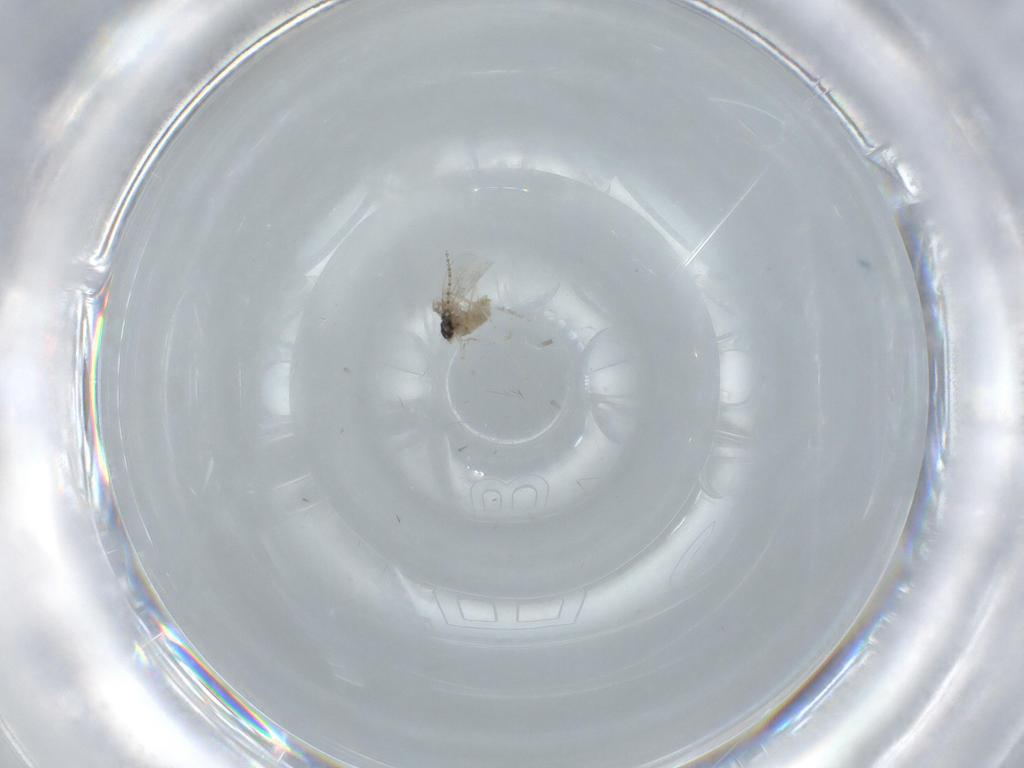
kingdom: Animalia
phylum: Arthropoda
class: Insecta
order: Diptera
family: Cecidomyiidae
